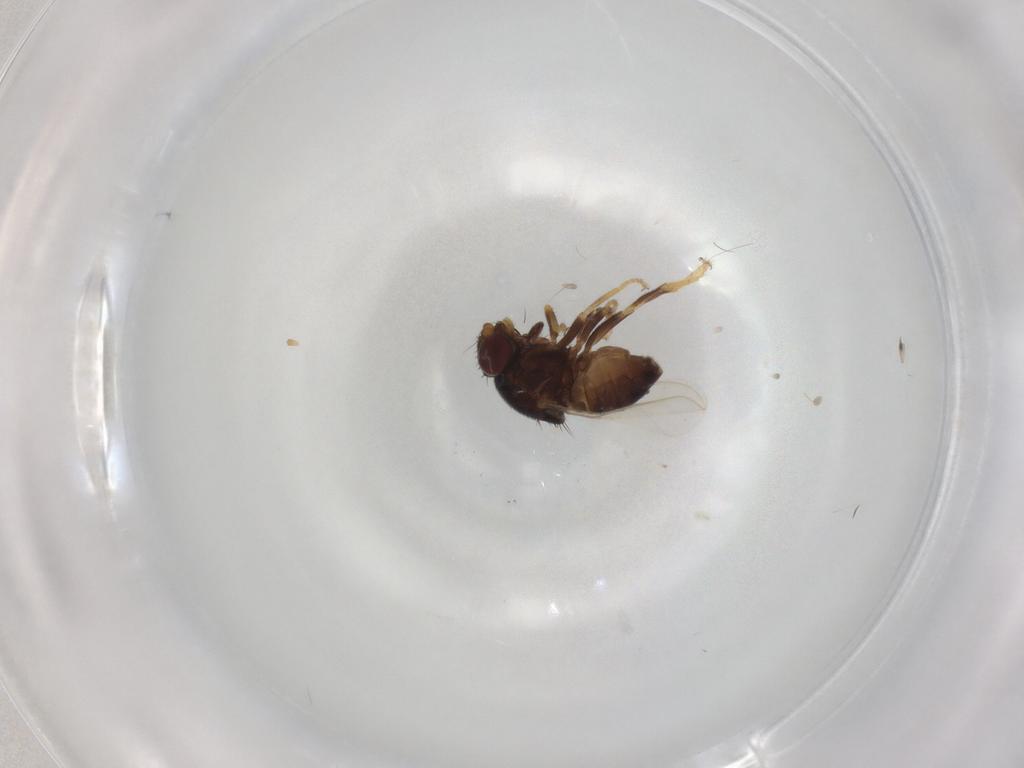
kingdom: Animalia
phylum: Arthropoda
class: Insecta
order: Diptera
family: Chloropidae
